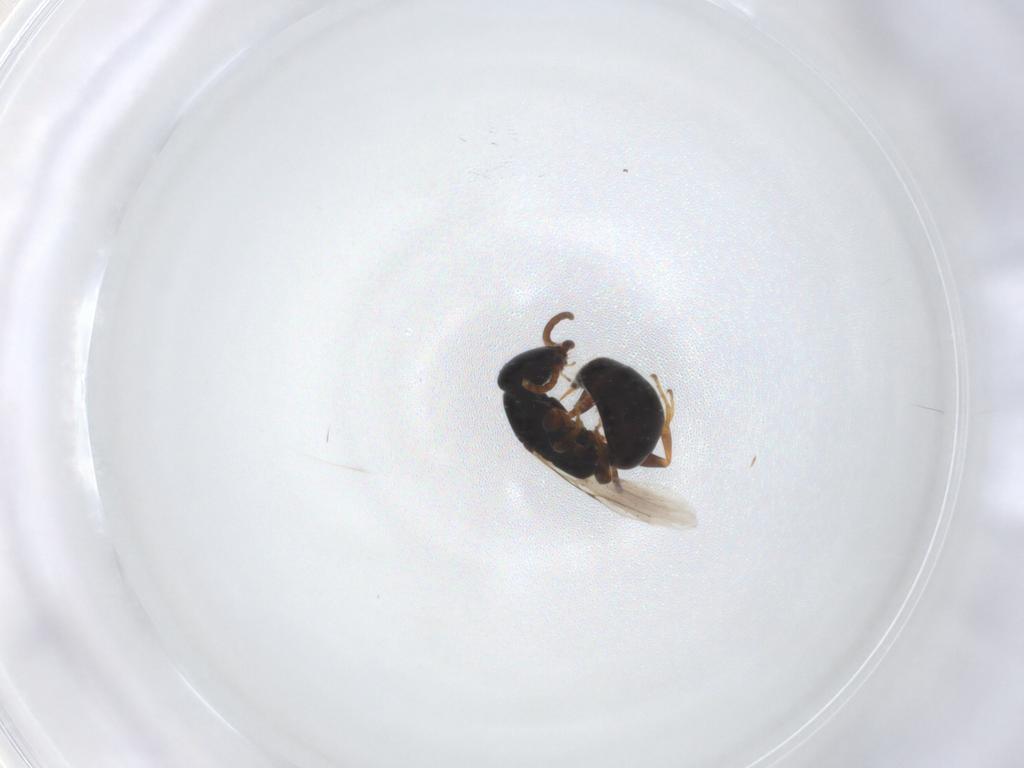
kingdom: Animalia
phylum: Arthropoda
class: Insecta
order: Hymenoptera
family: Bethylidae
